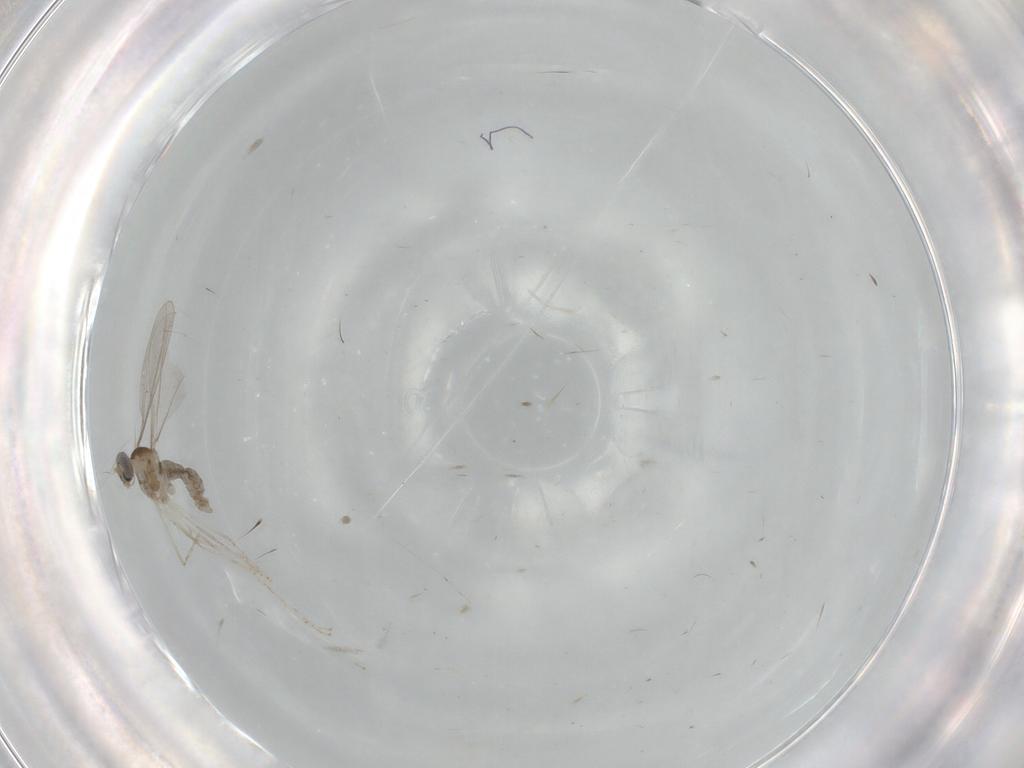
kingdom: Animalia
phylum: Arthropoda
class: Insecta
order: Diptera
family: Cecidomyiidae
